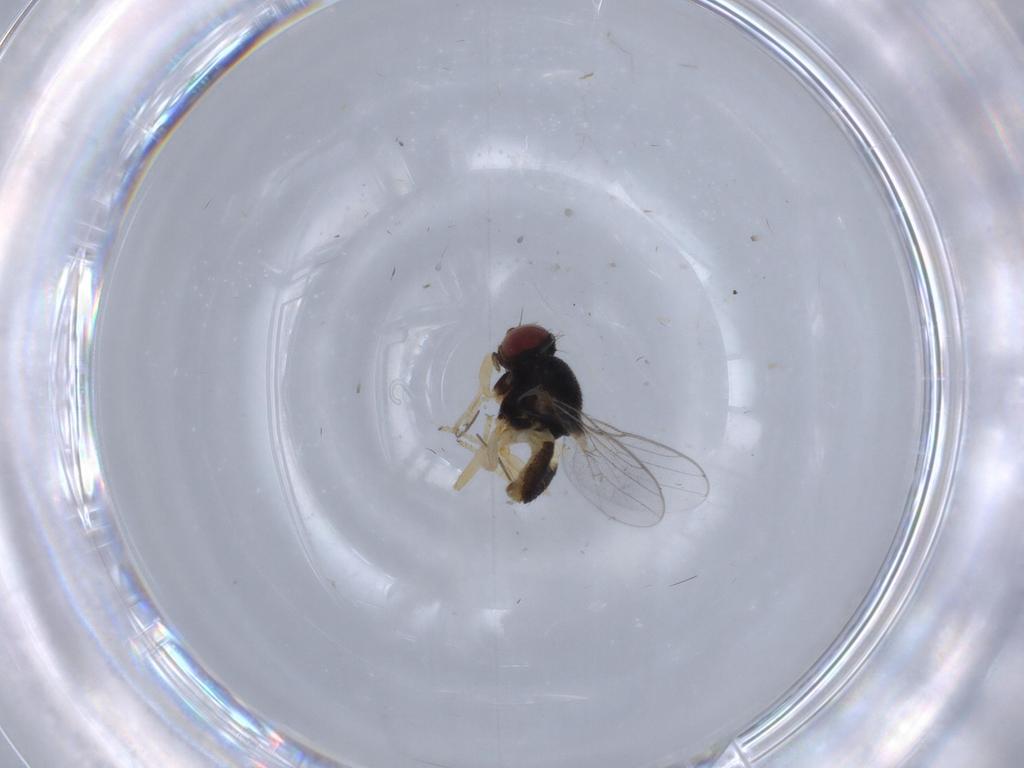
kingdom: Animalia
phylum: Arthropoda
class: Insecta
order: Diptera
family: Chloropidae
